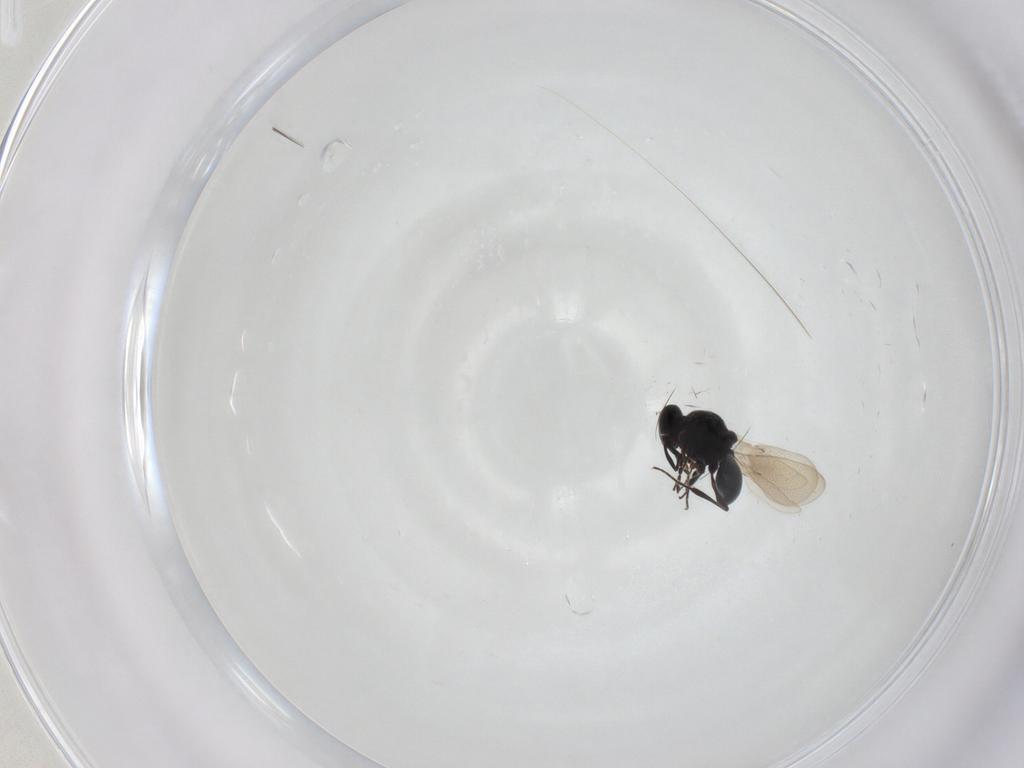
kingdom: Animalia
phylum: Arthropoda
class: Insecta
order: Hymenoptera
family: Platygastridae
